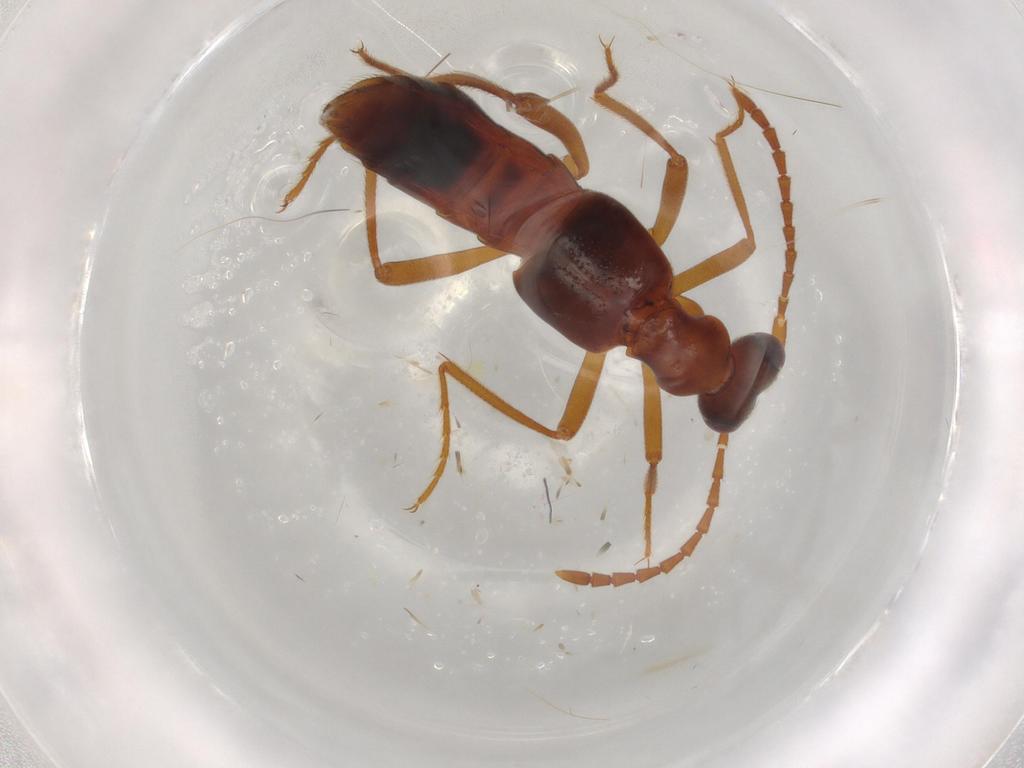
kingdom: Animalia
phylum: Arthropoda
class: Insecta
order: Coleoptera
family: Staphylinidae
